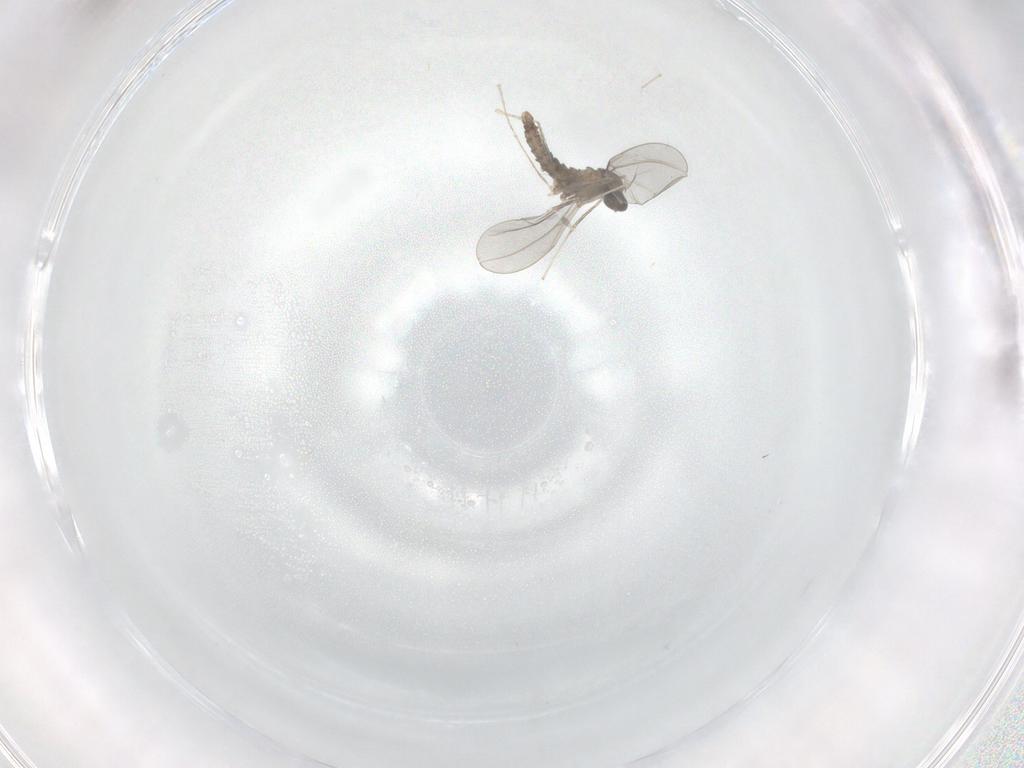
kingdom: Animalia
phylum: Arthropoda
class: Insecta
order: Diptera
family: Cecidomyiidae
